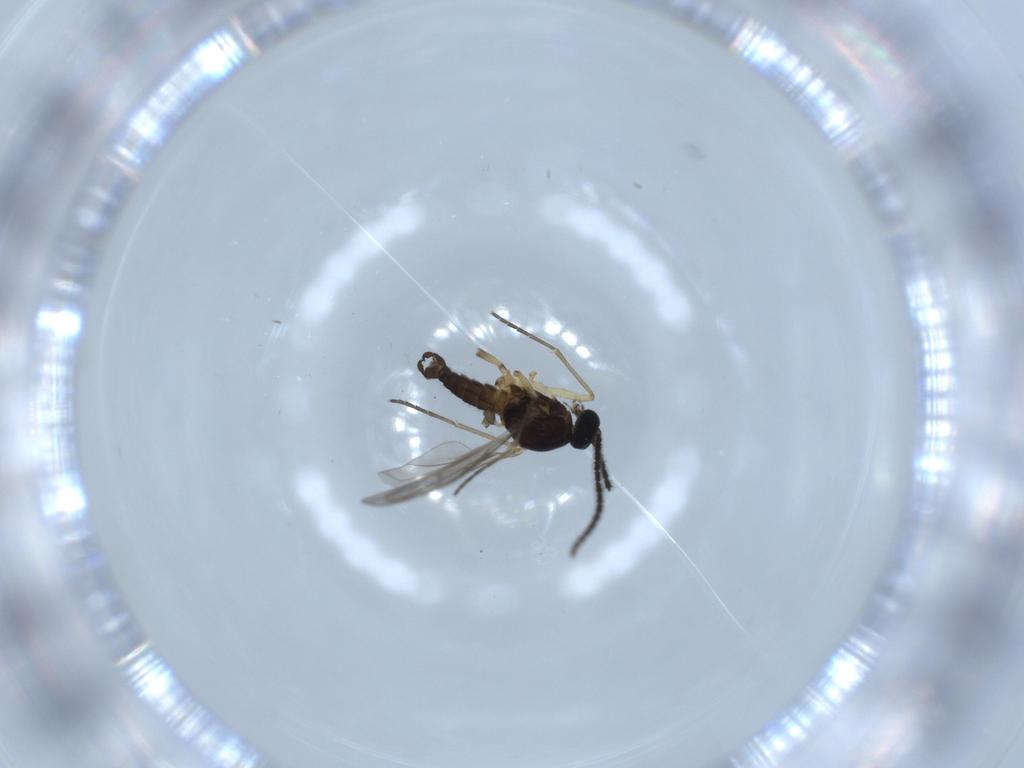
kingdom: Animalia
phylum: Arthropoda
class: Insecta
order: Diptera
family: Sciaridae
